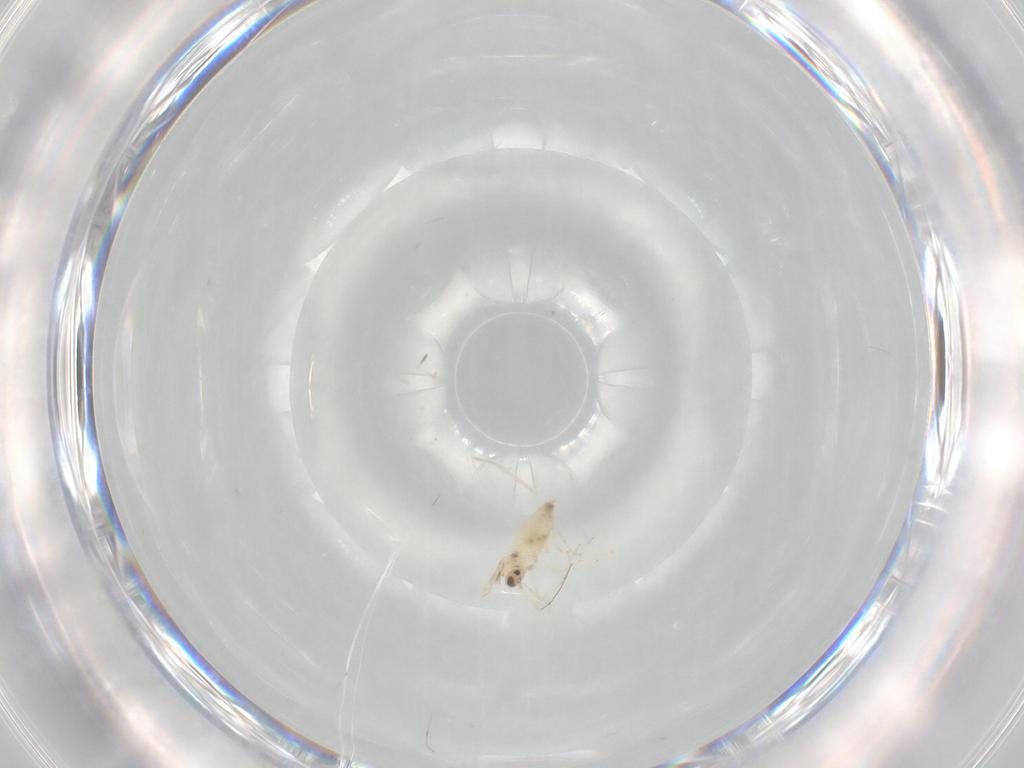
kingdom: Animalia
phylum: Arthropoda
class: Insecta
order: Diptera
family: Cecidomyiidae
